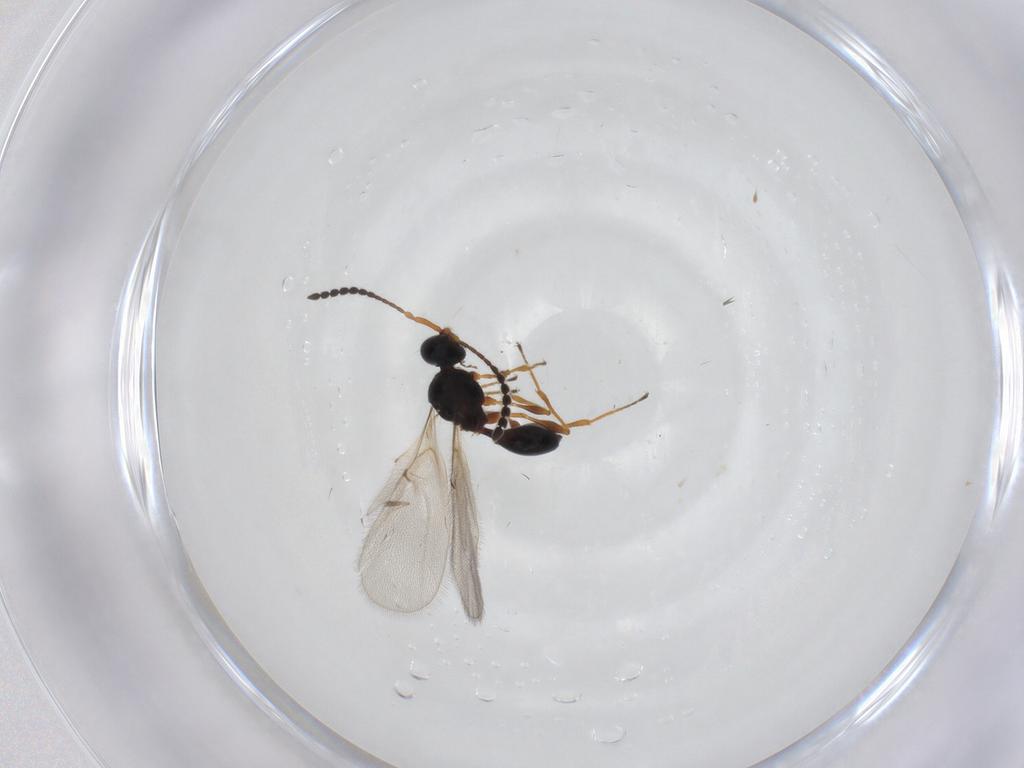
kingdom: Animalia
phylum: Arthropoda
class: Insecta
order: Hymenoptera
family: Diapriidae
